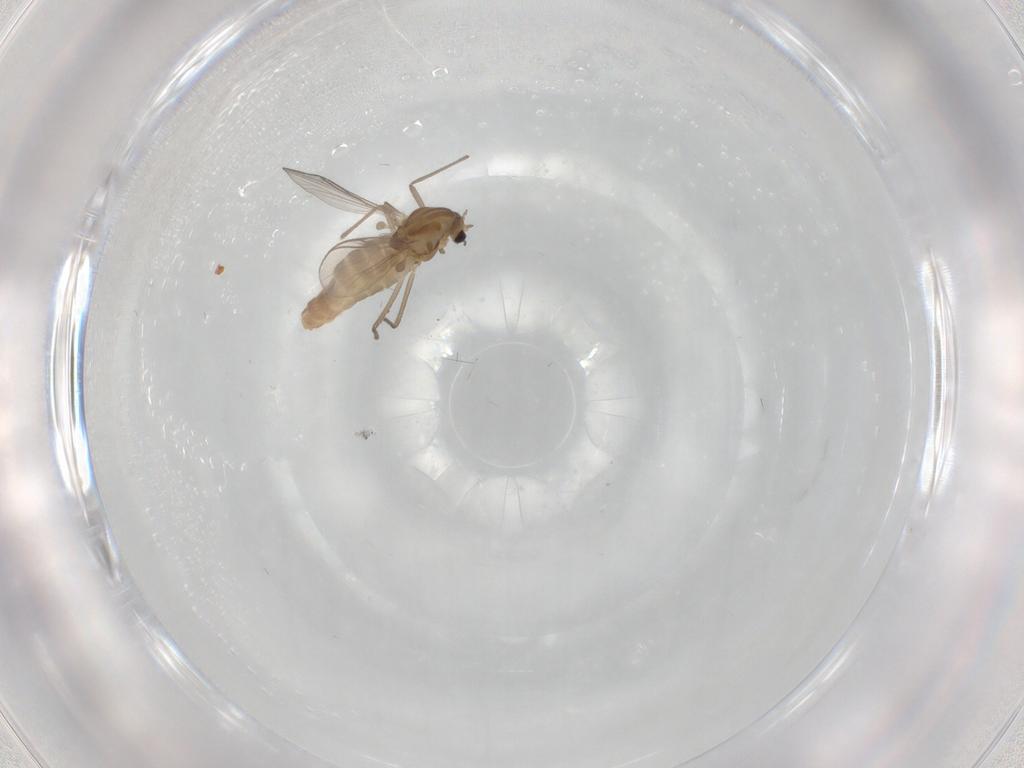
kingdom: Animalia
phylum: Arthropoda
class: Insecta
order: Diptera
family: Chironomidae
